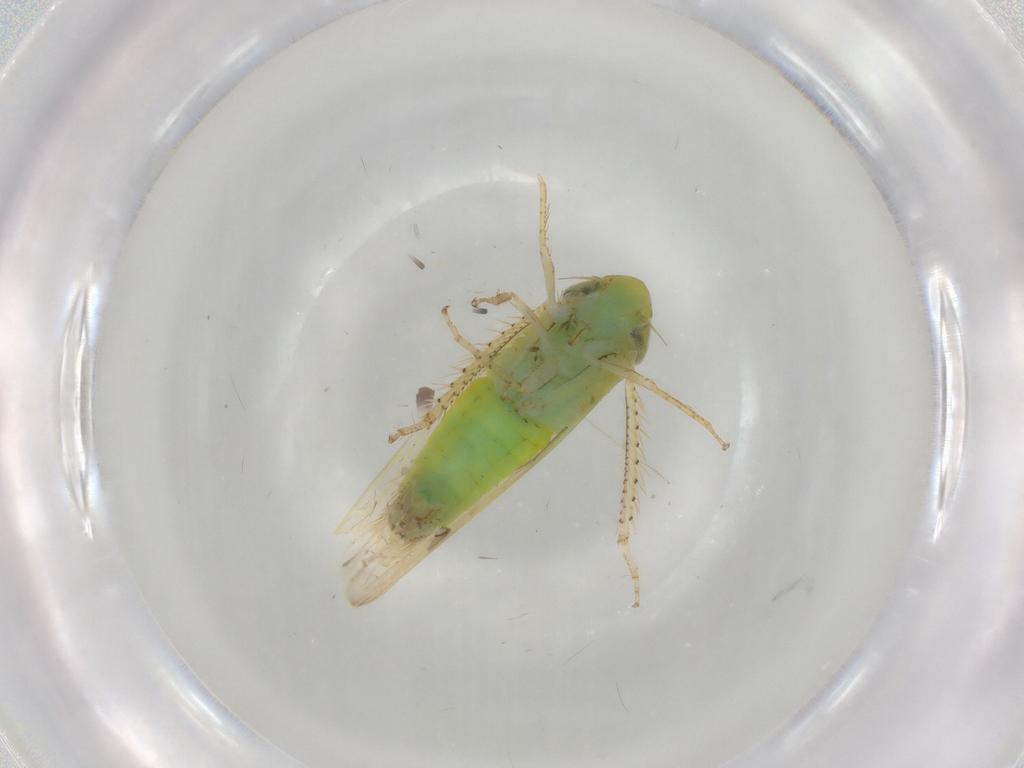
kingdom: Animalia
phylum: Arthropoda
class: Insecta
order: Hemiptera
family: Cicadellidae
